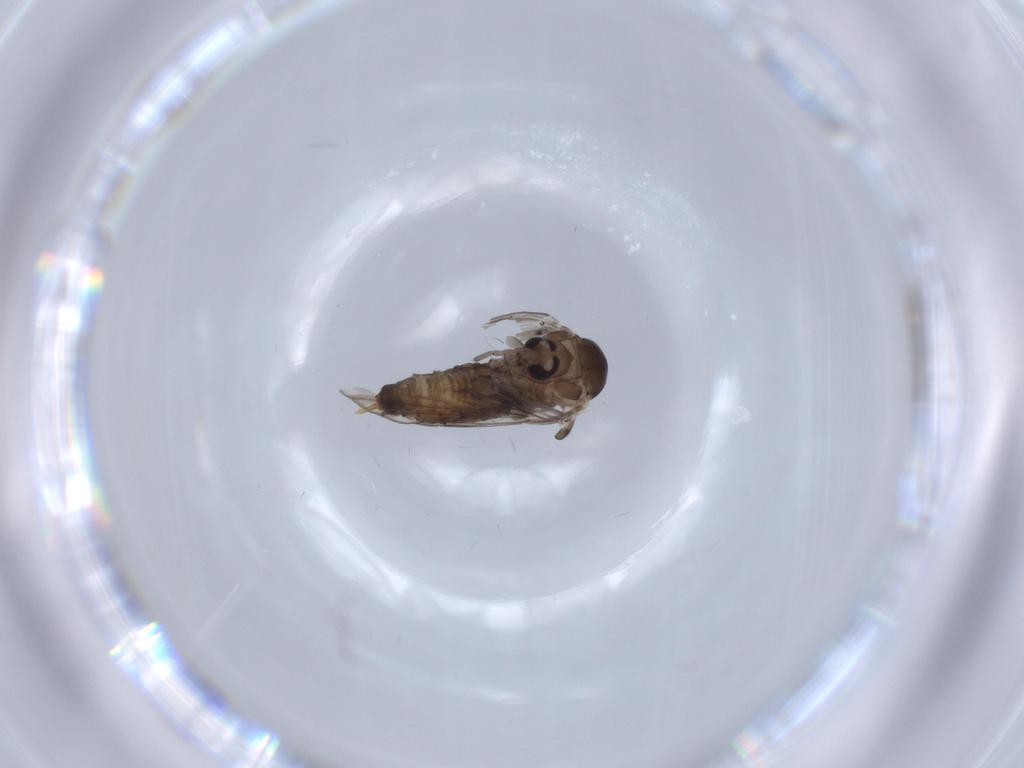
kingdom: Animalia
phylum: Arthropoda
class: Insecta
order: Diptera
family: Psychodidae
